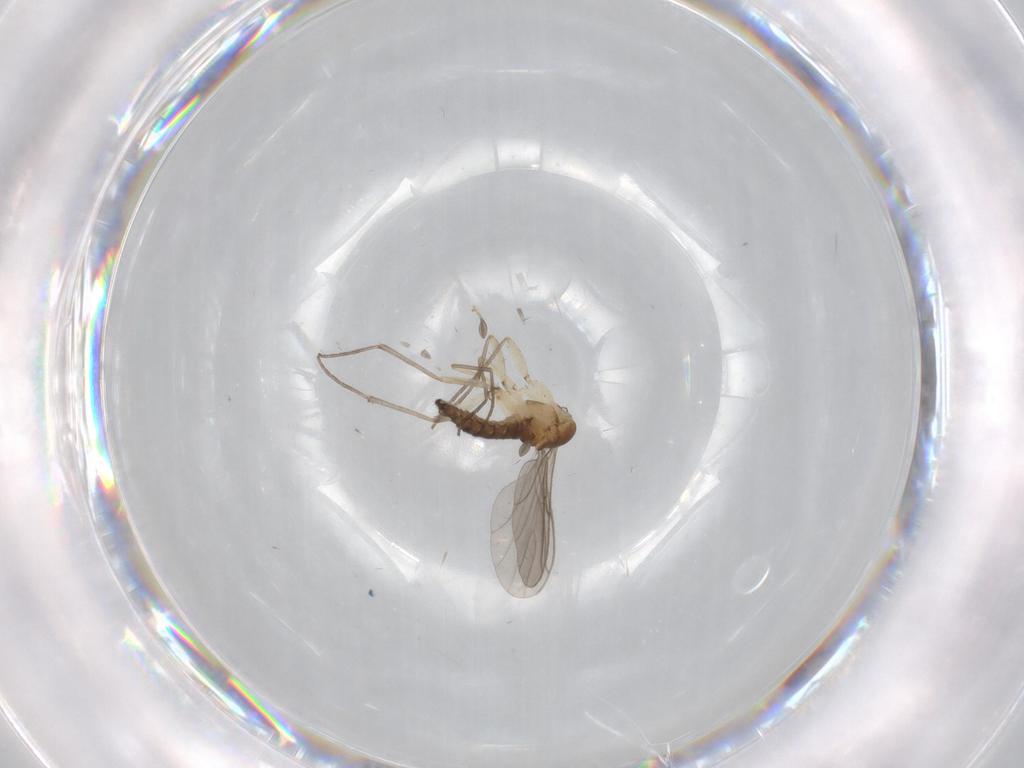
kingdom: Animalia
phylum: Arthropoda
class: Insecta
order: Diptera
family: Sciaridae
